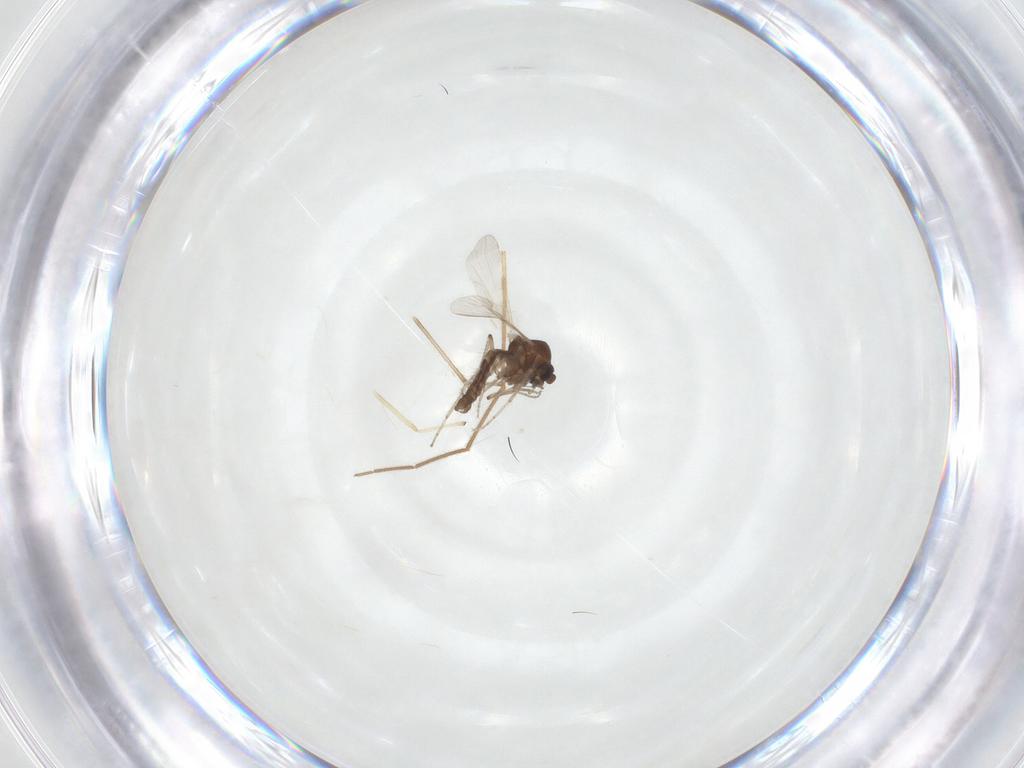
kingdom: Animalia
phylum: Arthropoda
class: Insecta
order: Diptera
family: Ceratopogonidae
